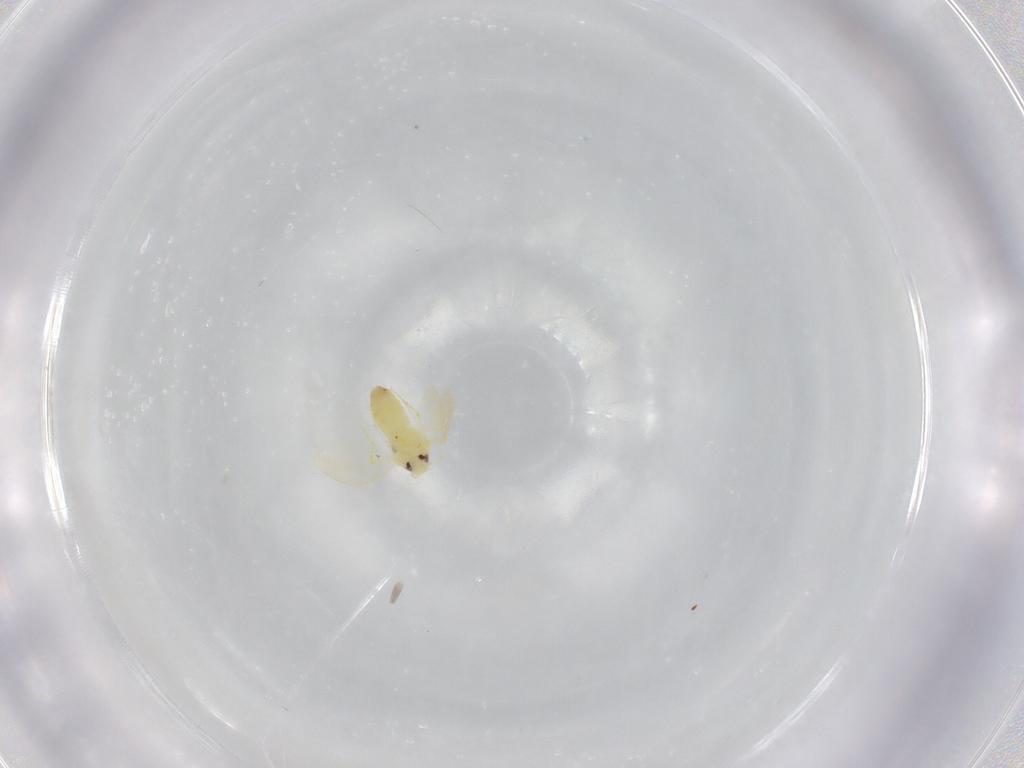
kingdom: Animalia
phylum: Arthropoda
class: Insecta
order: Hemiptera
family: Aleyrodidae
